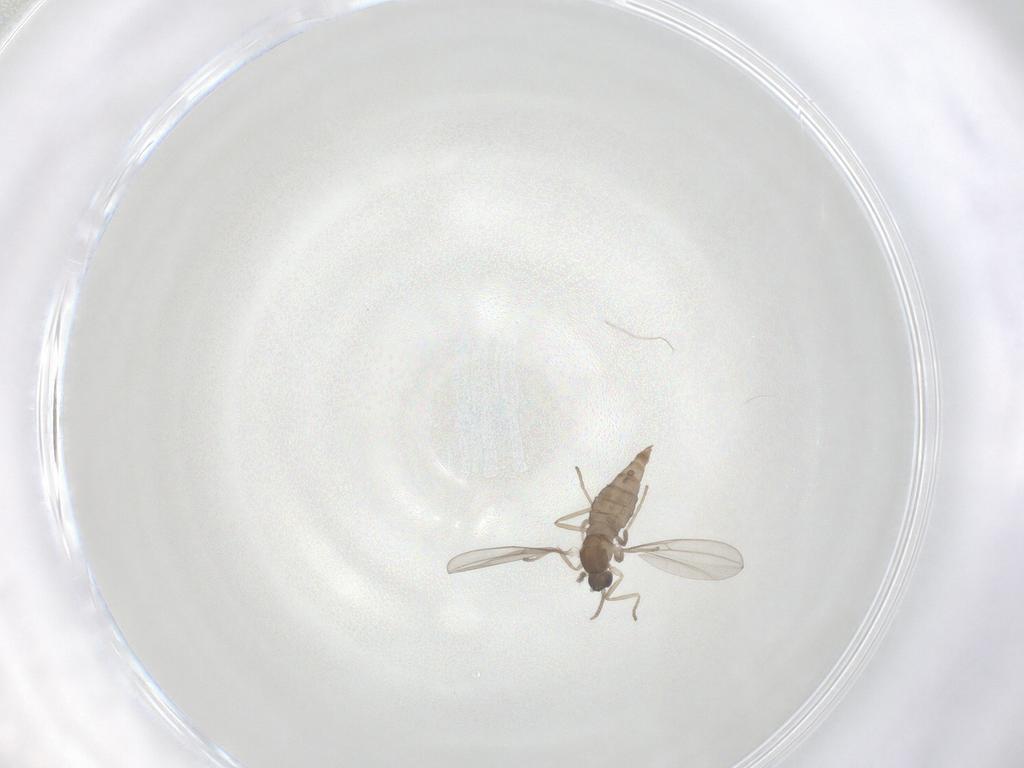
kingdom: Animalia
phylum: Arthropoda
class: Insecta
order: Diptera
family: Cecidomyiidae
